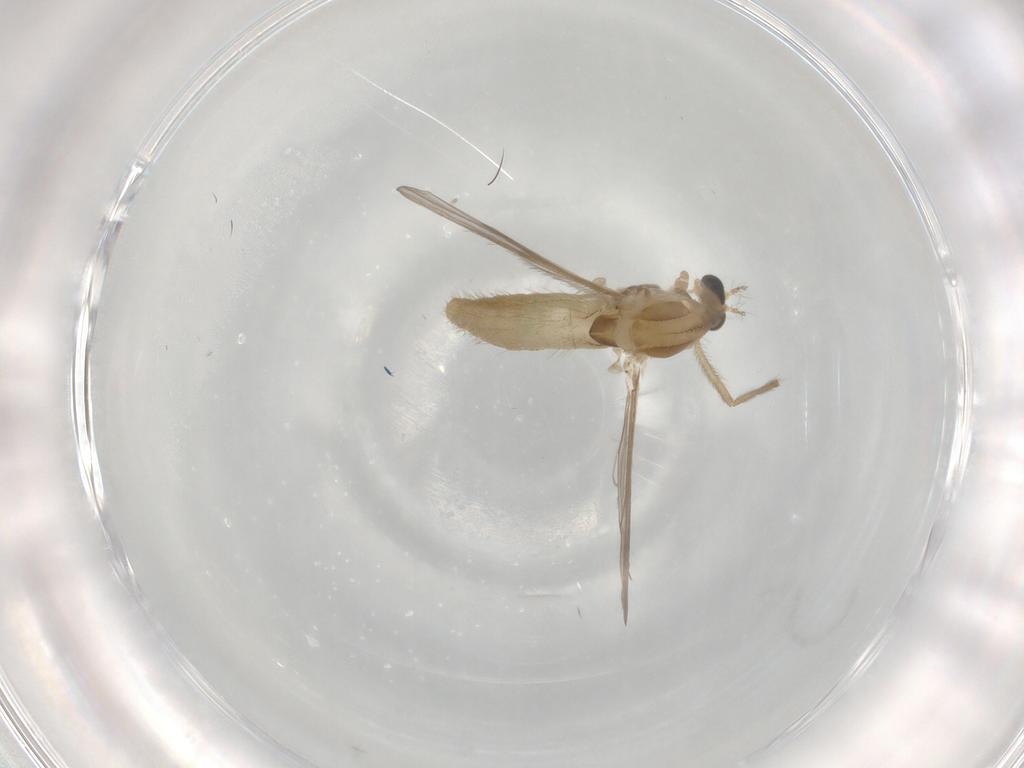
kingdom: Animalia
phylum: Arthropoda
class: Insecta
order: Diptera
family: Chironomidae
